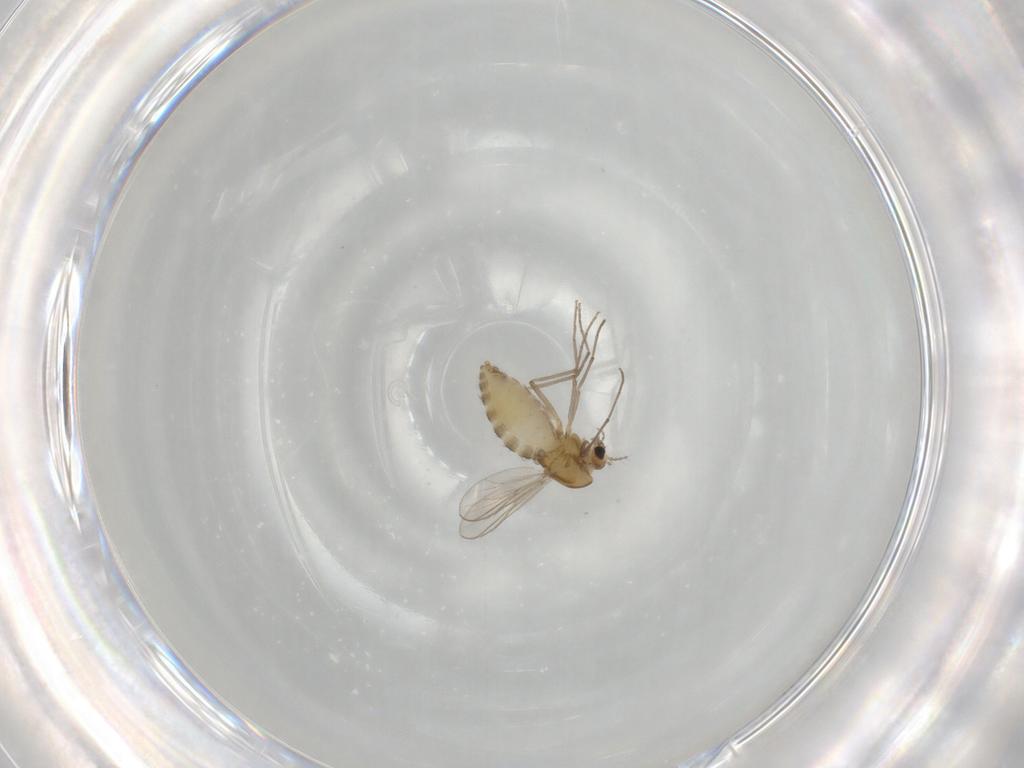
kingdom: Animalia
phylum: Arthropoda
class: Insecta
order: Diptera
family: Chironomidae
